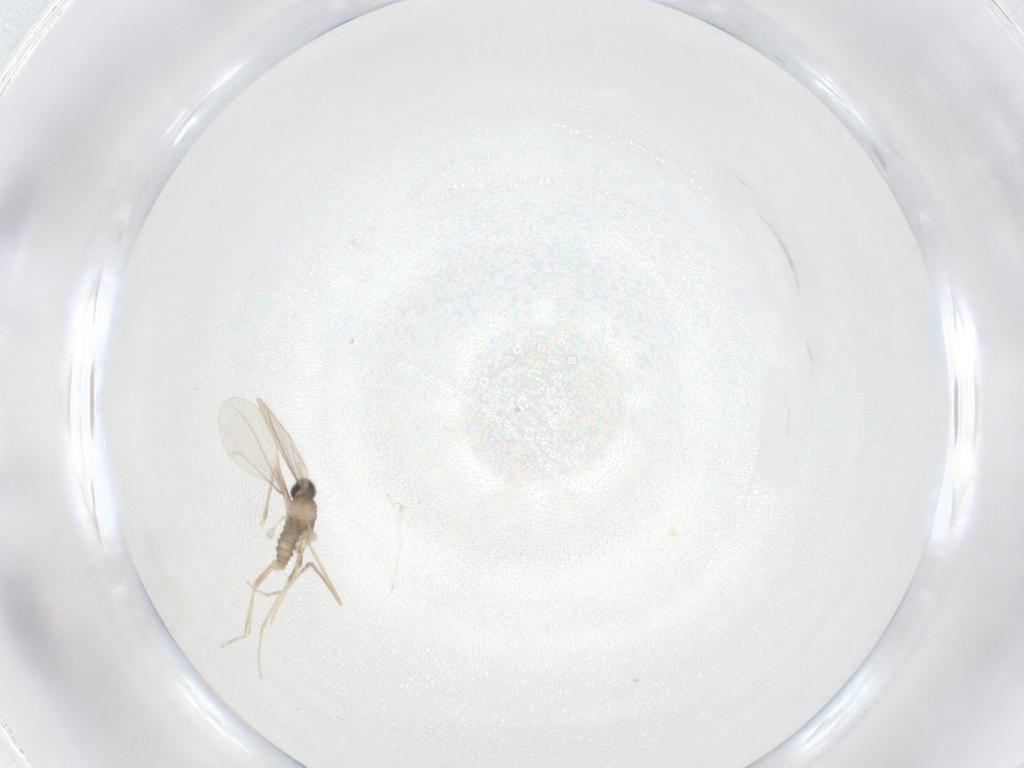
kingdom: Animalia
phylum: Arthropoda
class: Insecta
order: Diptera
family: Cecidomyiidae
